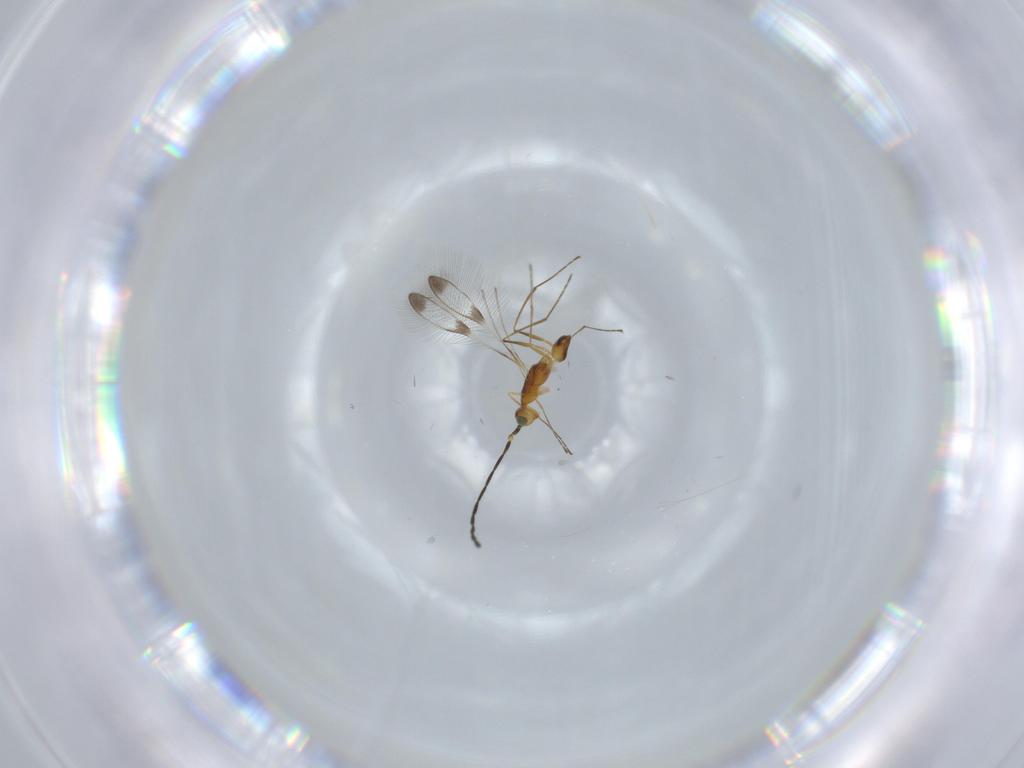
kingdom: Animalia
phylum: Arthropoda
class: Insecta
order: Hymenoptera
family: Mymaridae
